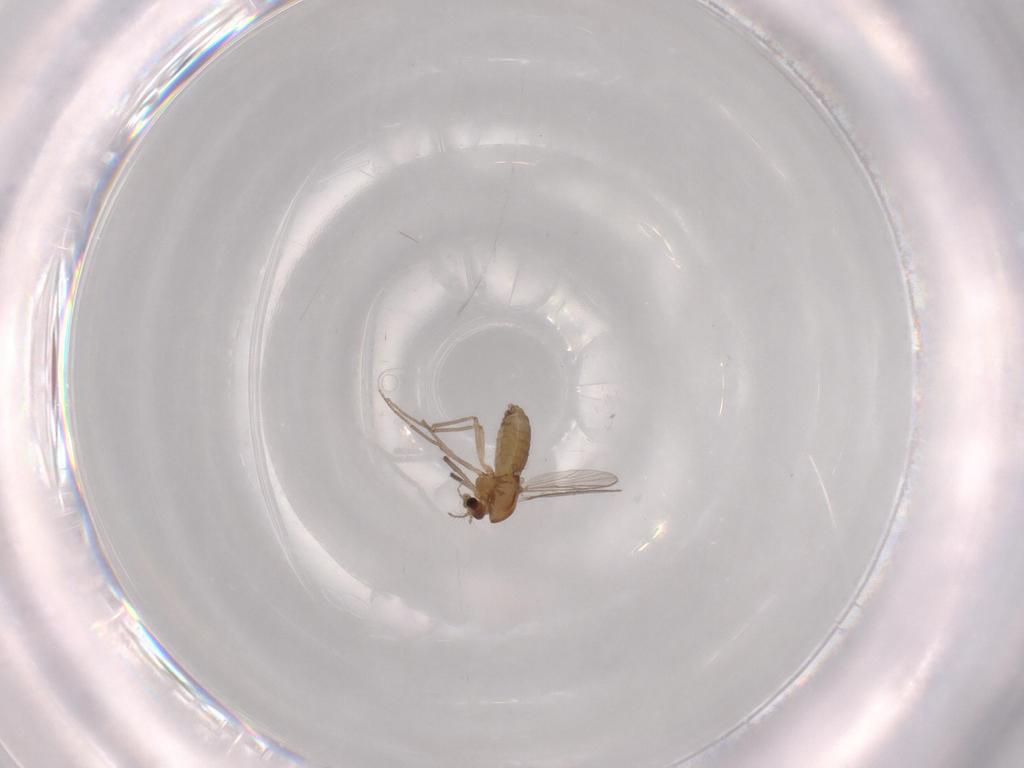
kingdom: Animalia
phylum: Arthropoda
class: Insecta
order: Diptera
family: Chironomidae
